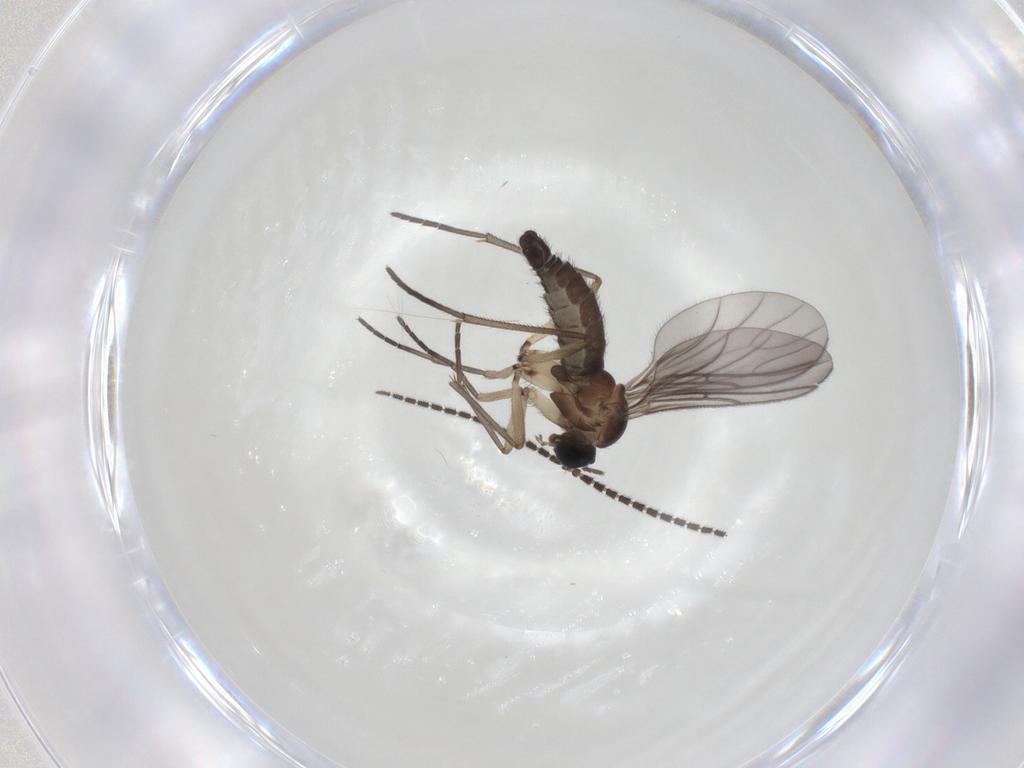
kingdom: Animalia
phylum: Arthropoda
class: Insecta
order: Diptera
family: Sciaridae
